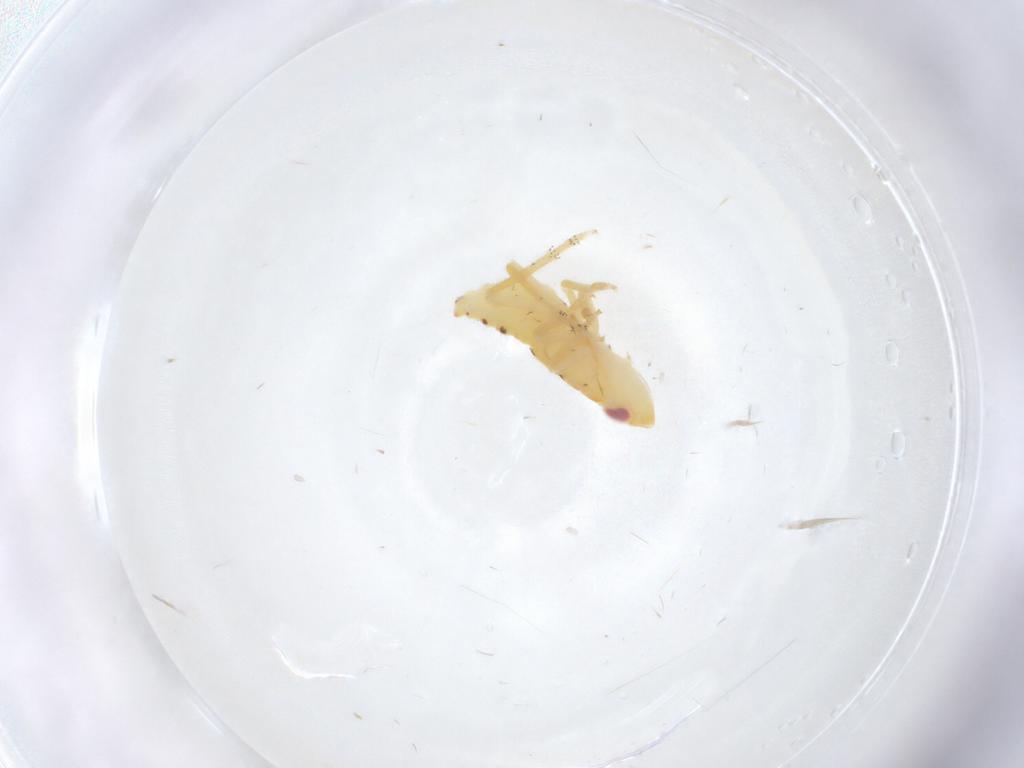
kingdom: Animalia
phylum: Arthropoda
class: Insecta
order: Hemiptera
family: Tropiduchidae
